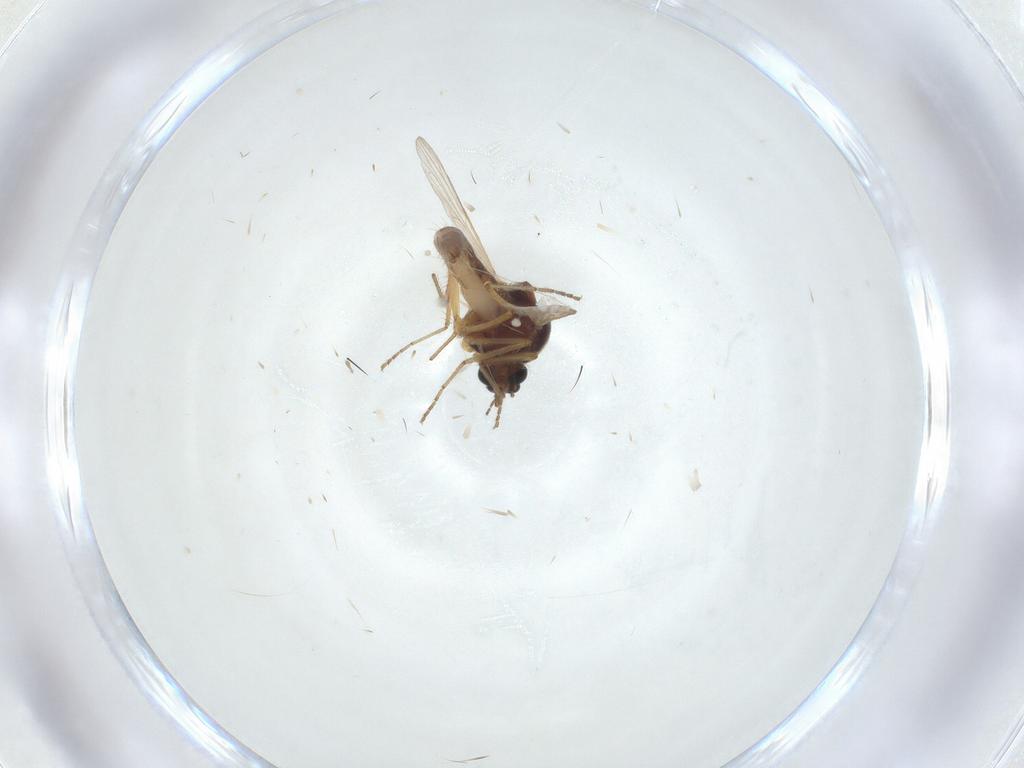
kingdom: Animalia
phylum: Arthropoda
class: Insecta
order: Diptera
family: Ceratopogonidae
